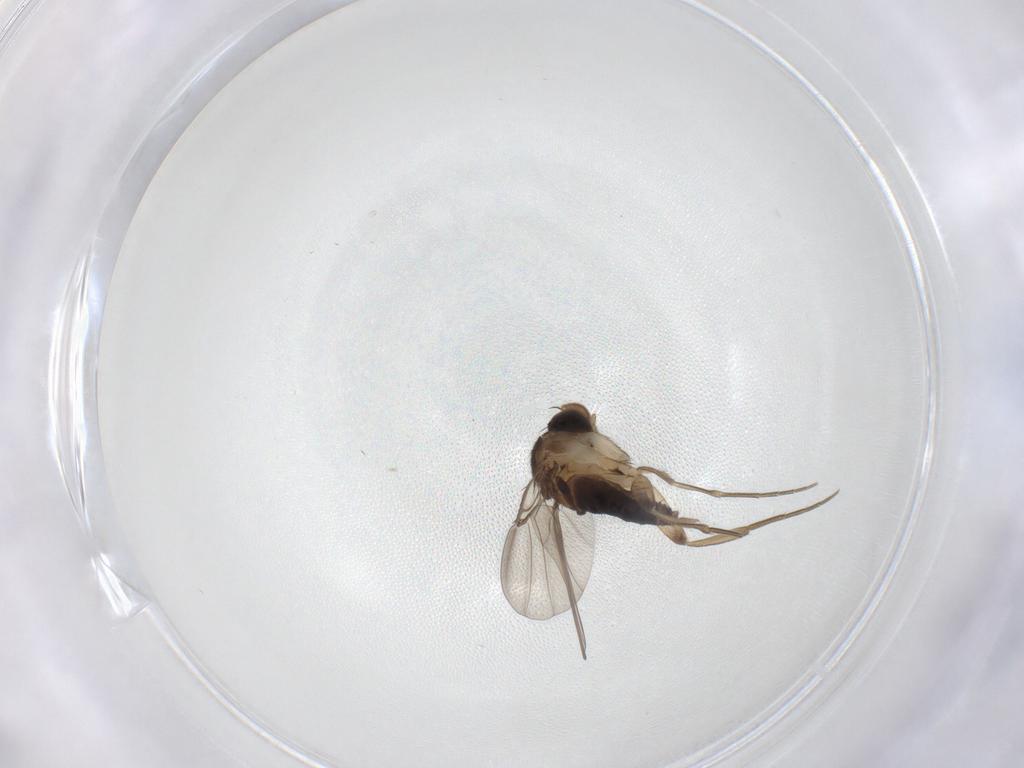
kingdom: Animalia
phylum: Arthropoda
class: Insecta
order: Diptera
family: Phoridae
